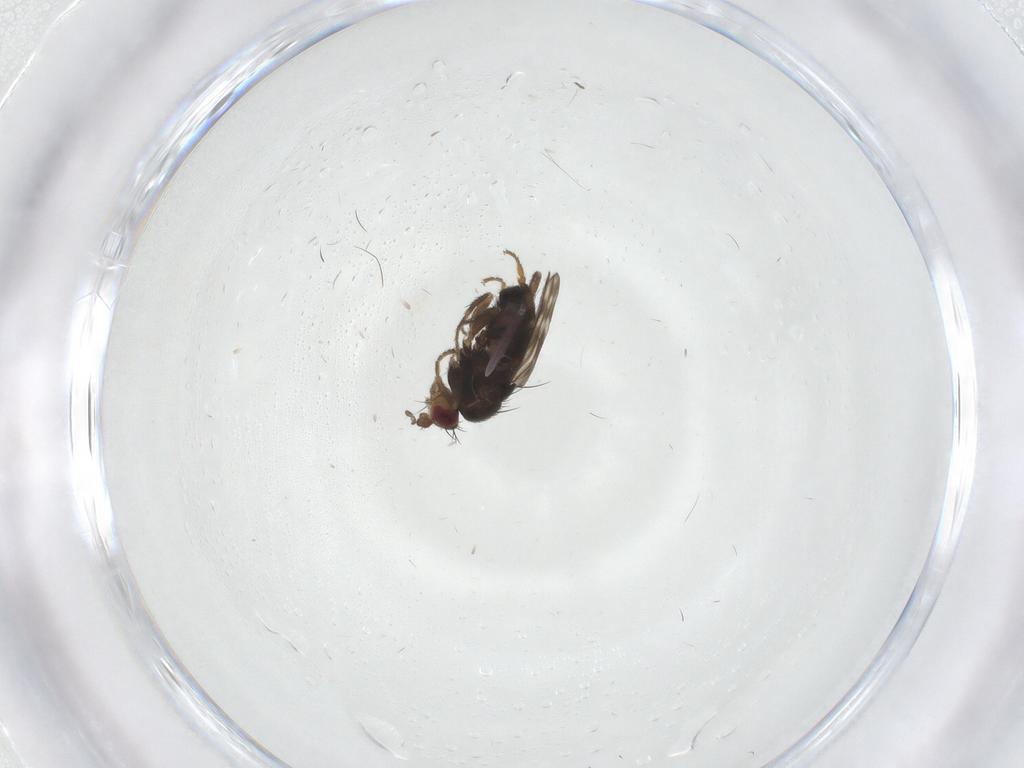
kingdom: Animalia
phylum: Arthropoda
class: Insecta
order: Diptera
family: Sphaeroceridae
